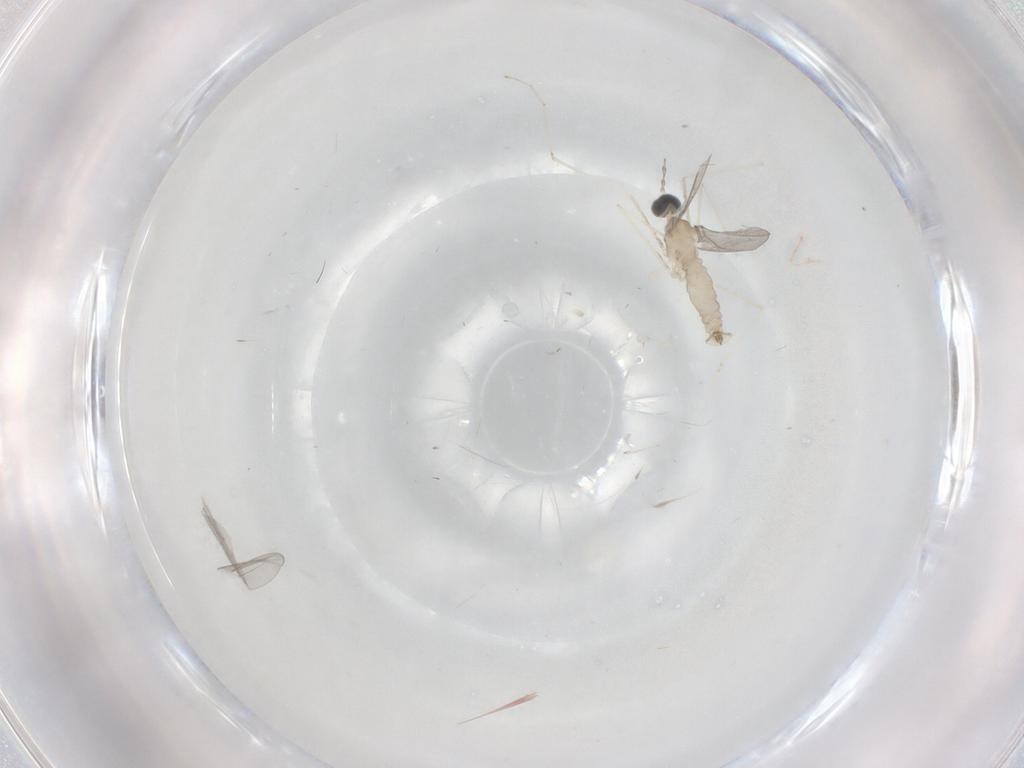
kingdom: Animalia
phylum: Arthropoda
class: Insecta
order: Diptera
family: Cecidomyiidae
